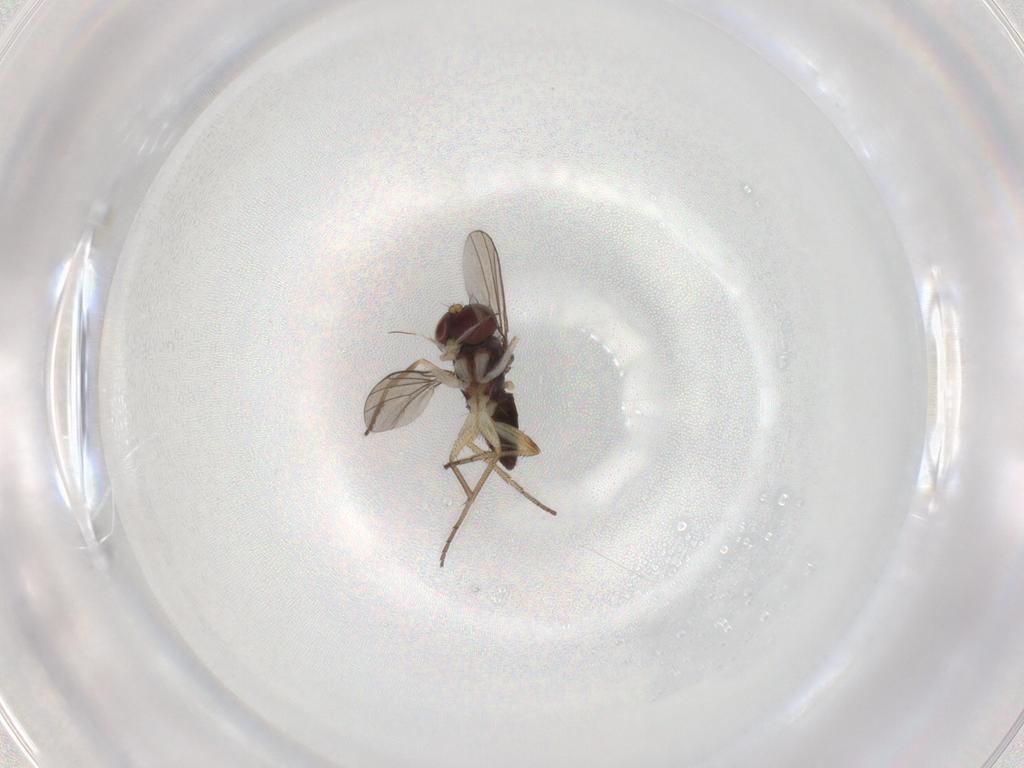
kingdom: Animalia
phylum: Arthropoda
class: Insecta
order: Diptera
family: Dolichopodidae
